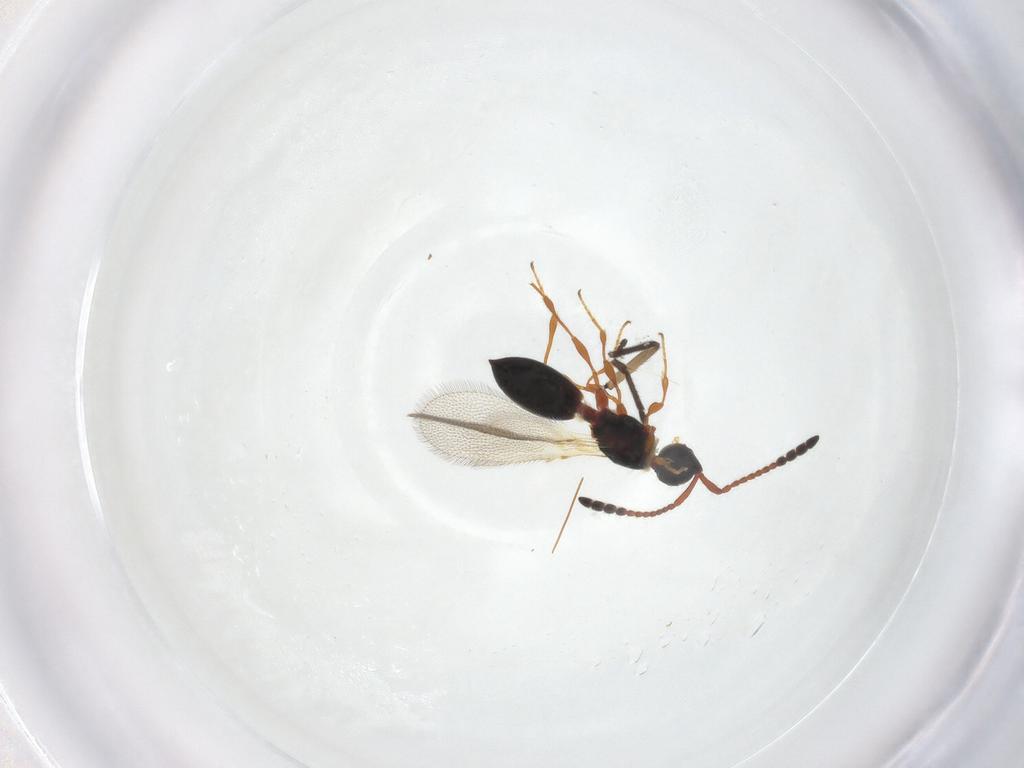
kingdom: Animalia
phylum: Arthropoda
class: Insecta
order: Hymenoptera
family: Diapriidae
